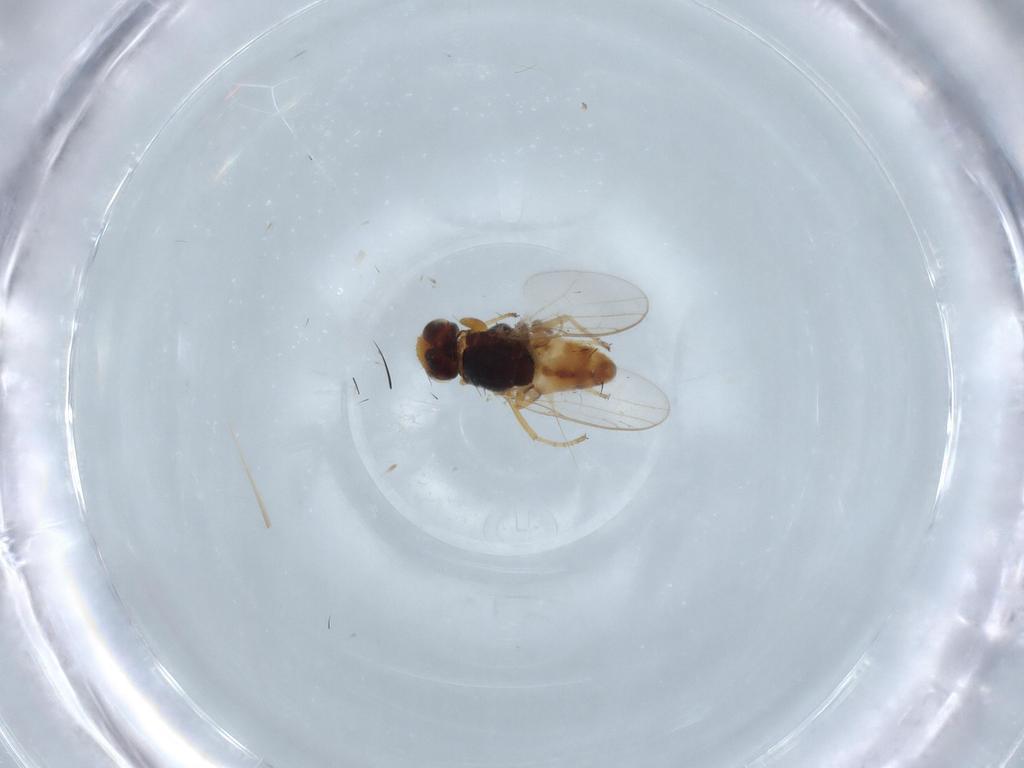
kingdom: Animalia
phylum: Arthropoda
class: Insecta
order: Diptera
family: Chloropidae
